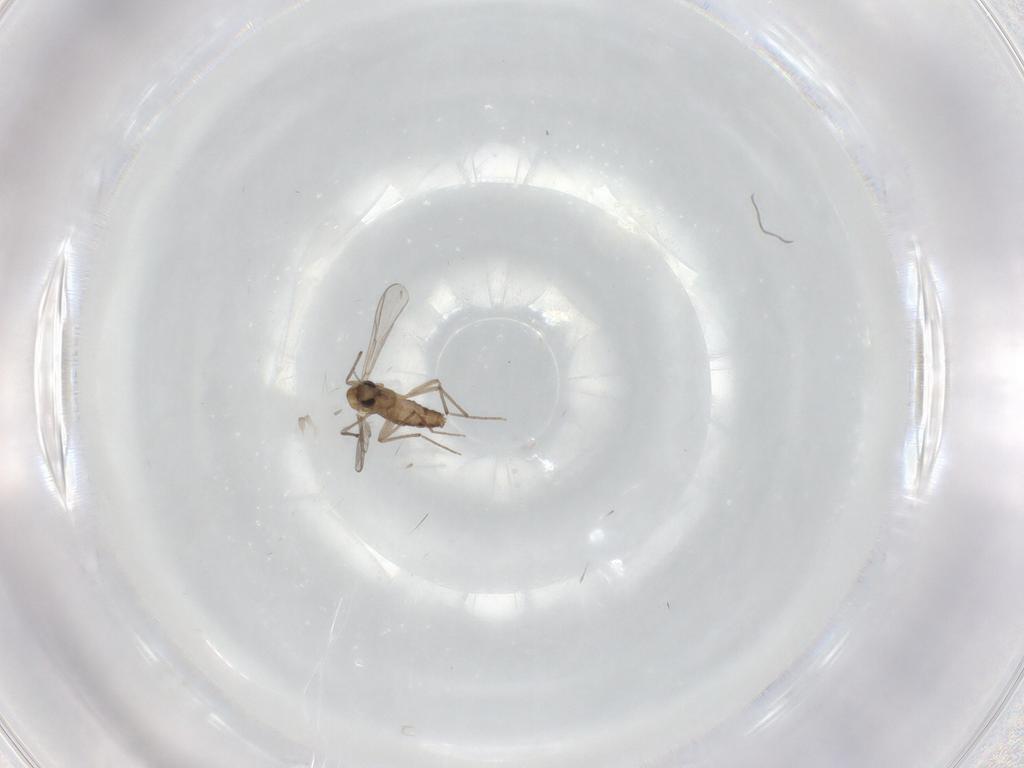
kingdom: Animalia
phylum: Arthropoda
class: Insecta
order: Diptera
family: Chironomidae
